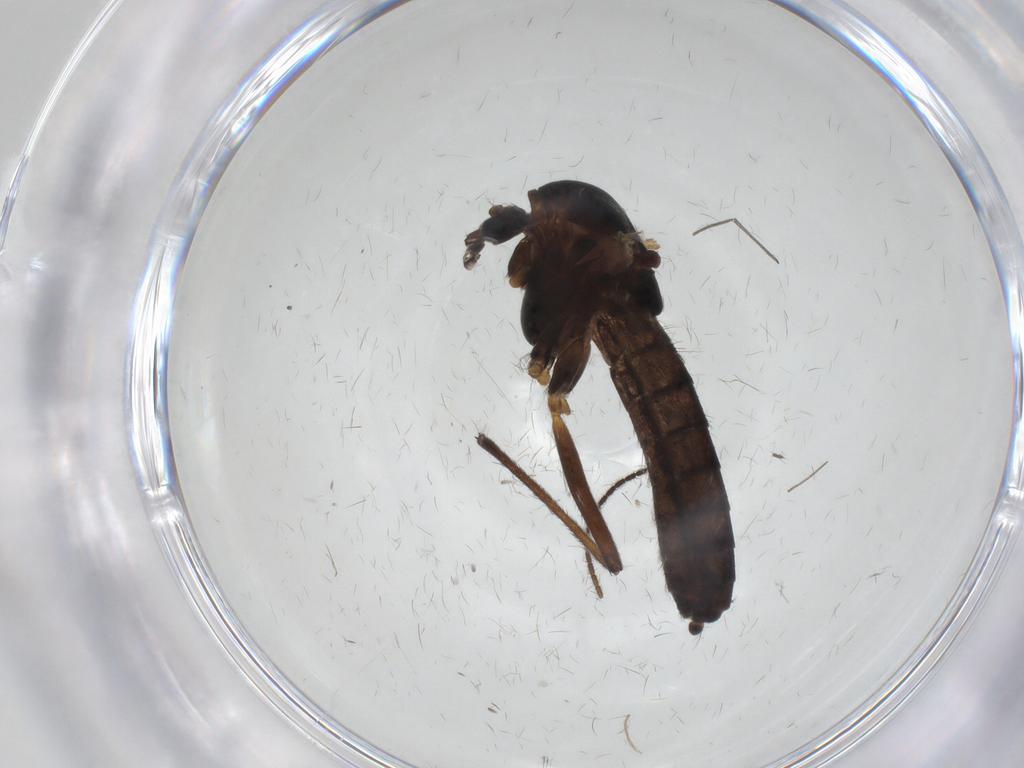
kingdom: Animalia
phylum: Arthropoda
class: Insecta
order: Diptera
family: Chironomidae
